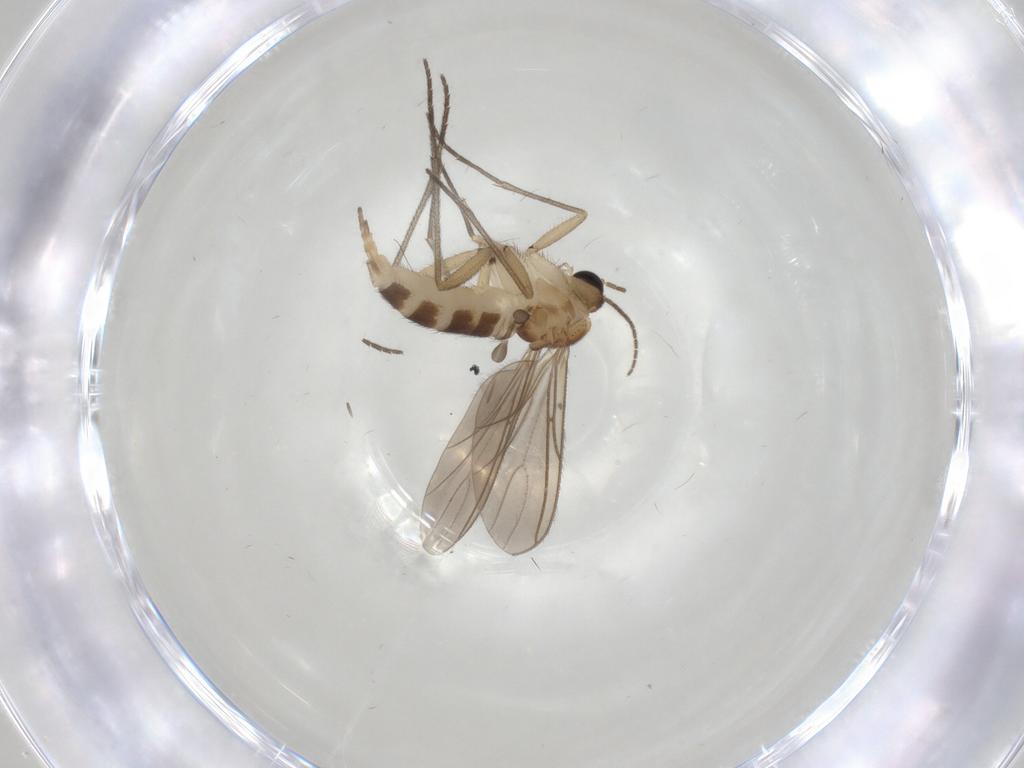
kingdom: Animalia
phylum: Arthropoda
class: Insecta
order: Diptera
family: Sciaridae
